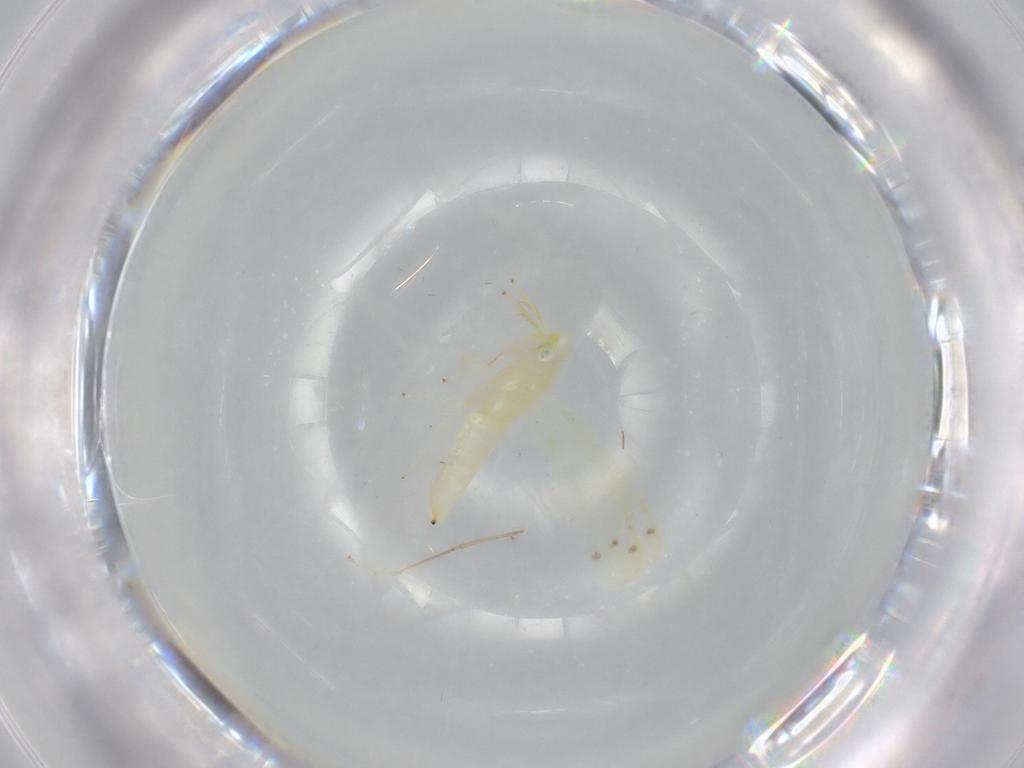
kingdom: Animalia
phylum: Arthropoda
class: Insecta
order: Hemiptera
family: Cicadellidae
